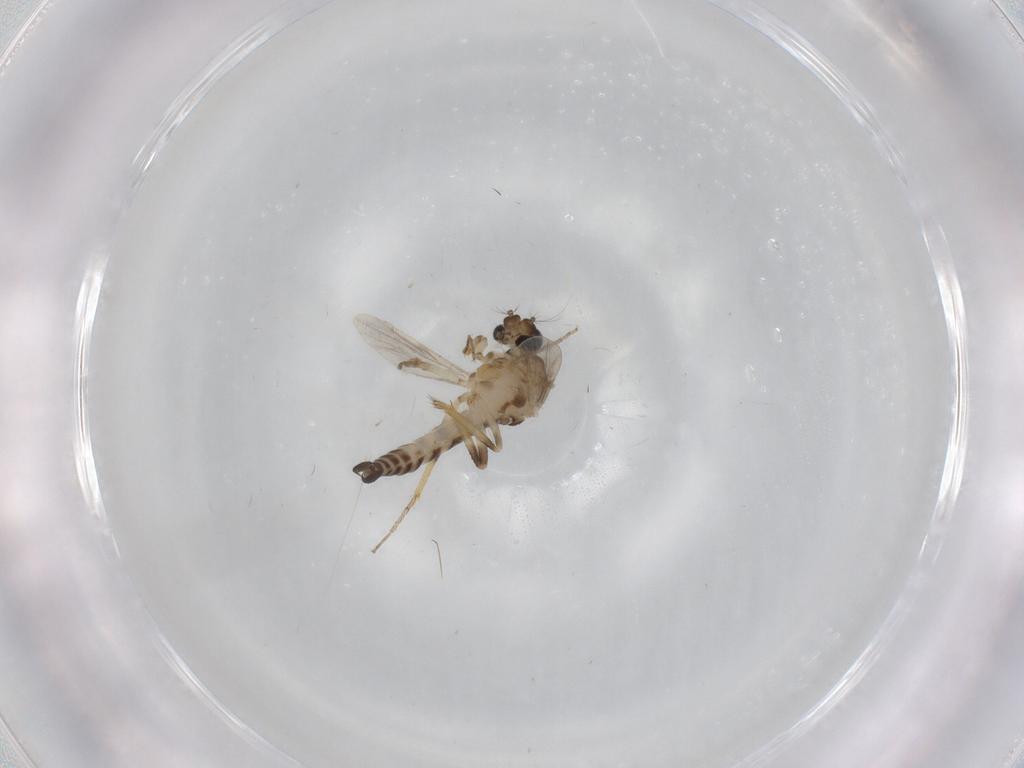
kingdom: Animalia
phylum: Arthropoda
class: Insecta
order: Diptera
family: Ceratopogonidae
